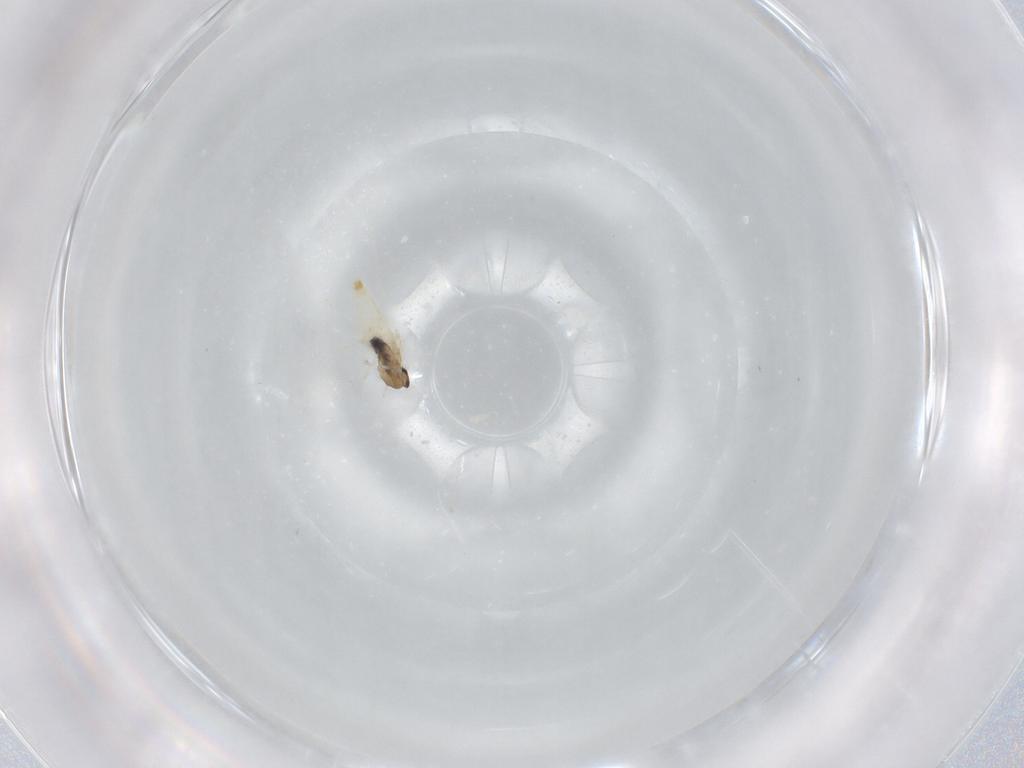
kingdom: Animalia
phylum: Arthropoda
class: Insecta
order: Diptera
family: Cecidomyiidae
